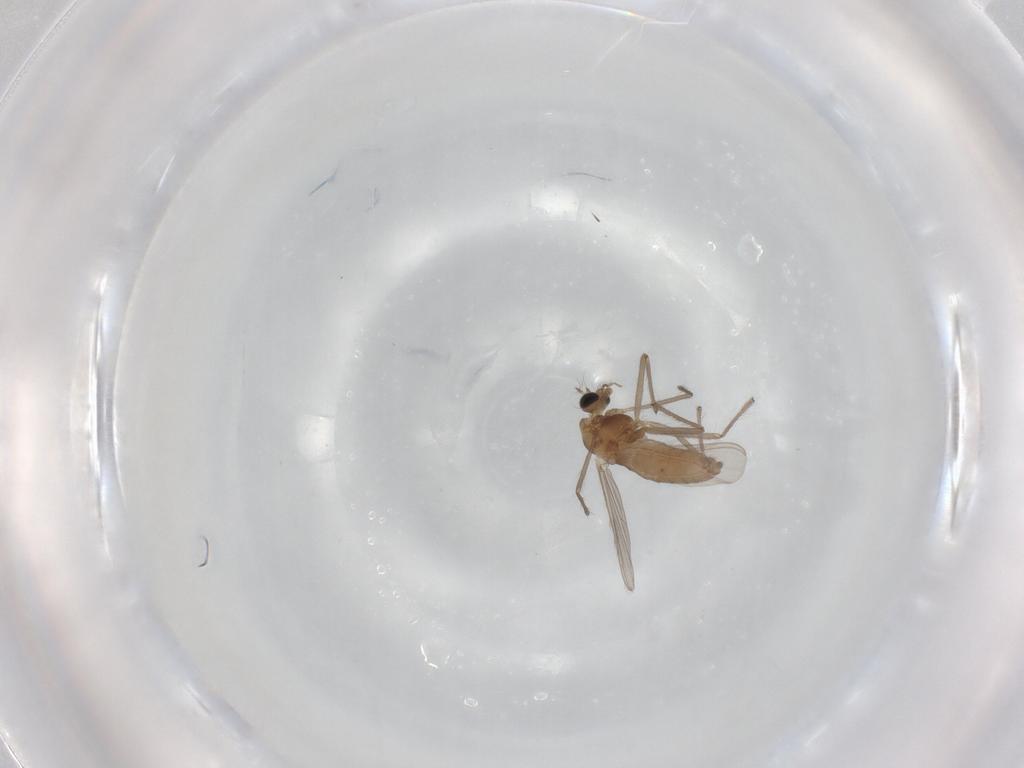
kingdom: Animalia
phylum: Arthropoda
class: Insecta
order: Diptera
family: Chironomidae
